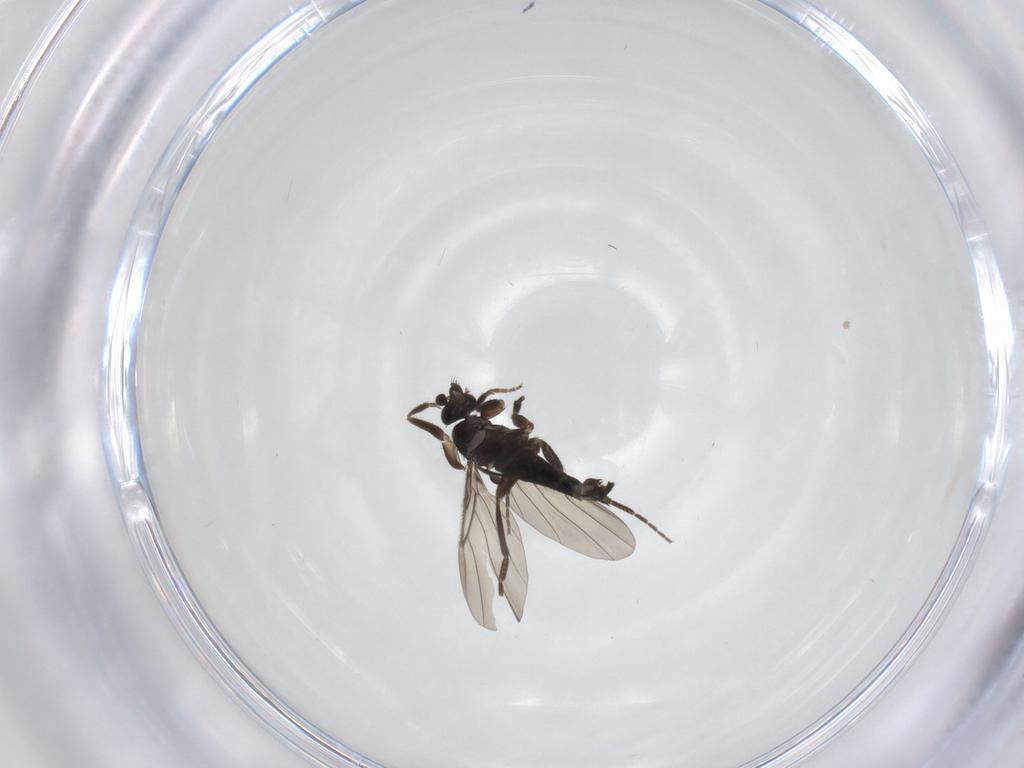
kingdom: Animalia
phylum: Arthropoda
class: Insecta
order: Diptera
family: Phoridae
